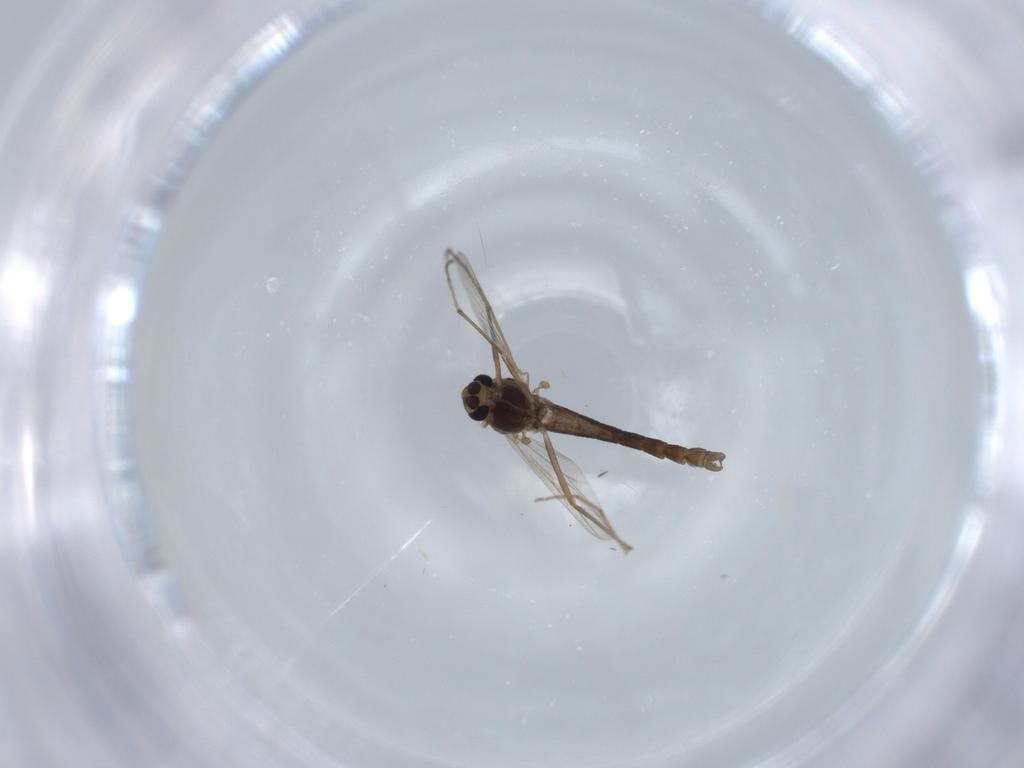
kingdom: Animalia
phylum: Arthropoda
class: Insecta
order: Diptera
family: Chironomidae
